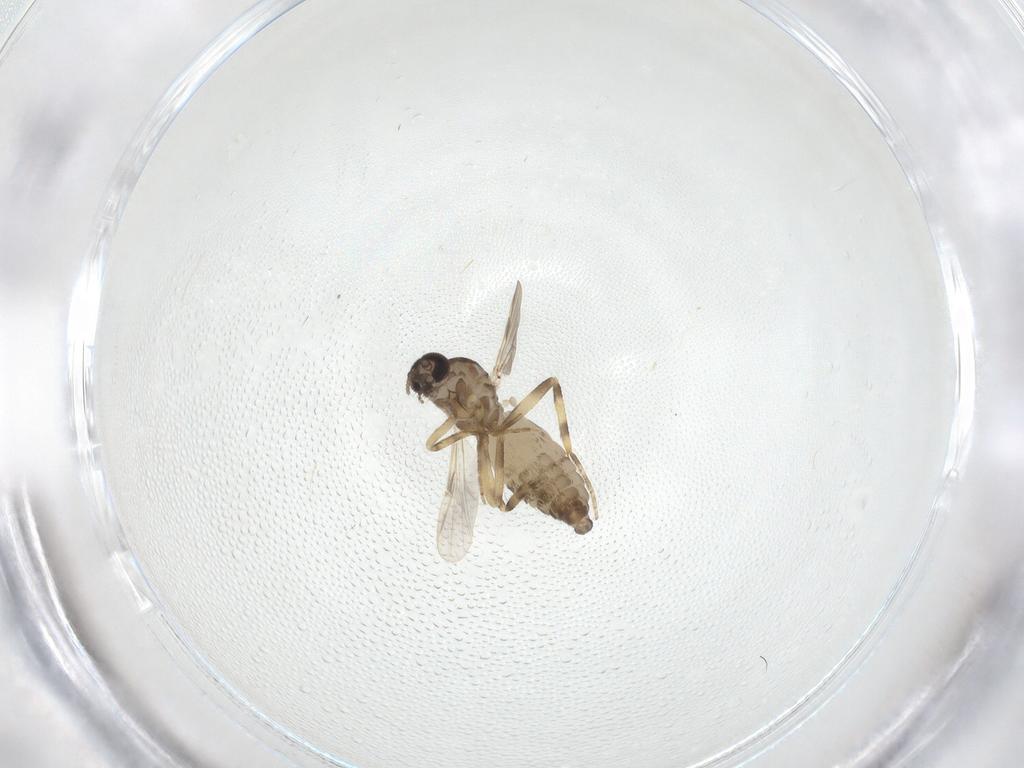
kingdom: Animalia
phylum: Arthropoda
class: Insecta
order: Diptera
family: Ceratopogonidae
